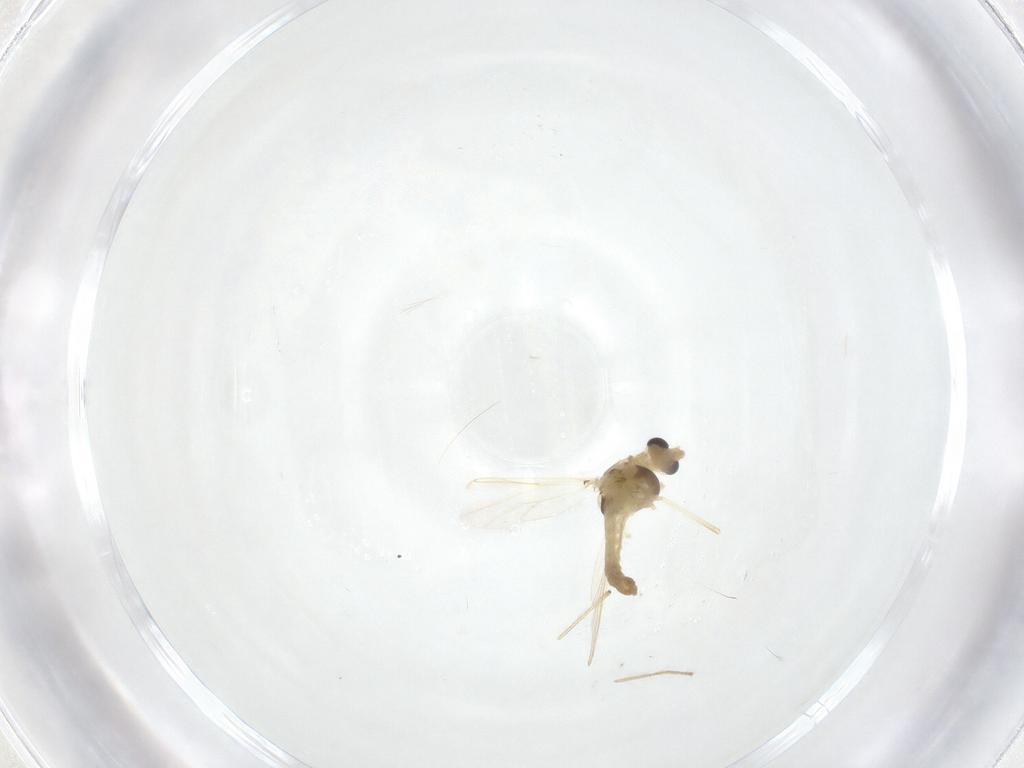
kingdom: Animalia
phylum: Arthropoda
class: Insecta
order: Diptera
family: Chironomidae
